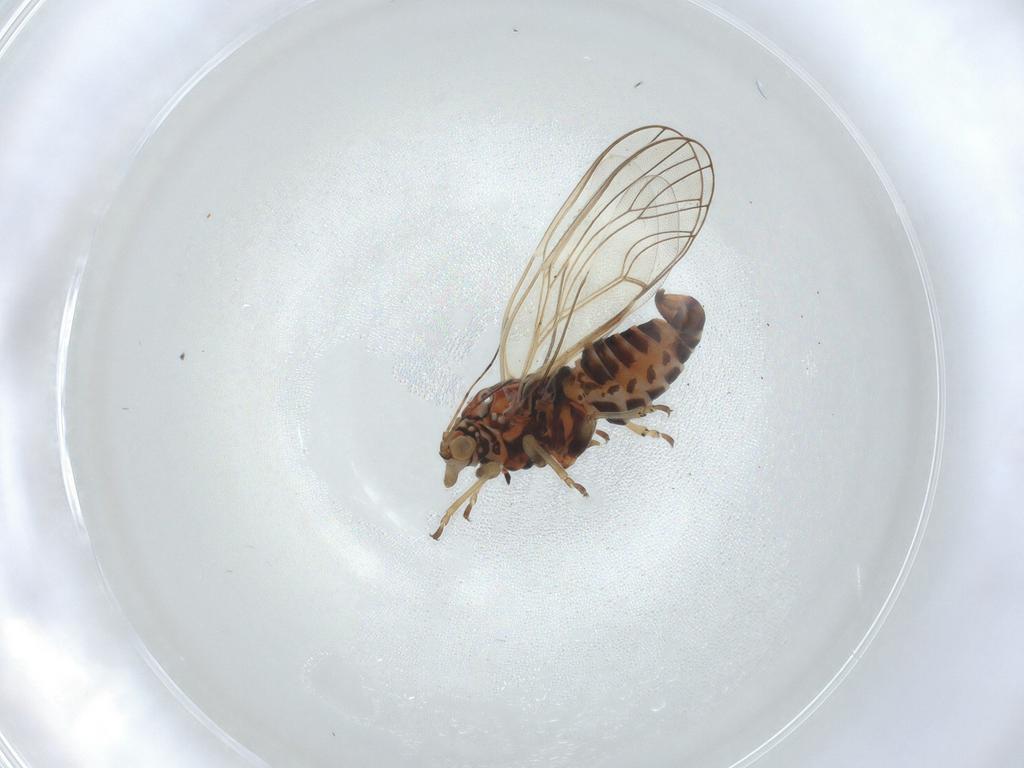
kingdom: Animalia
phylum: Arthropoda
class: Insecta
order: Hemiptera
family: Psyllidae
